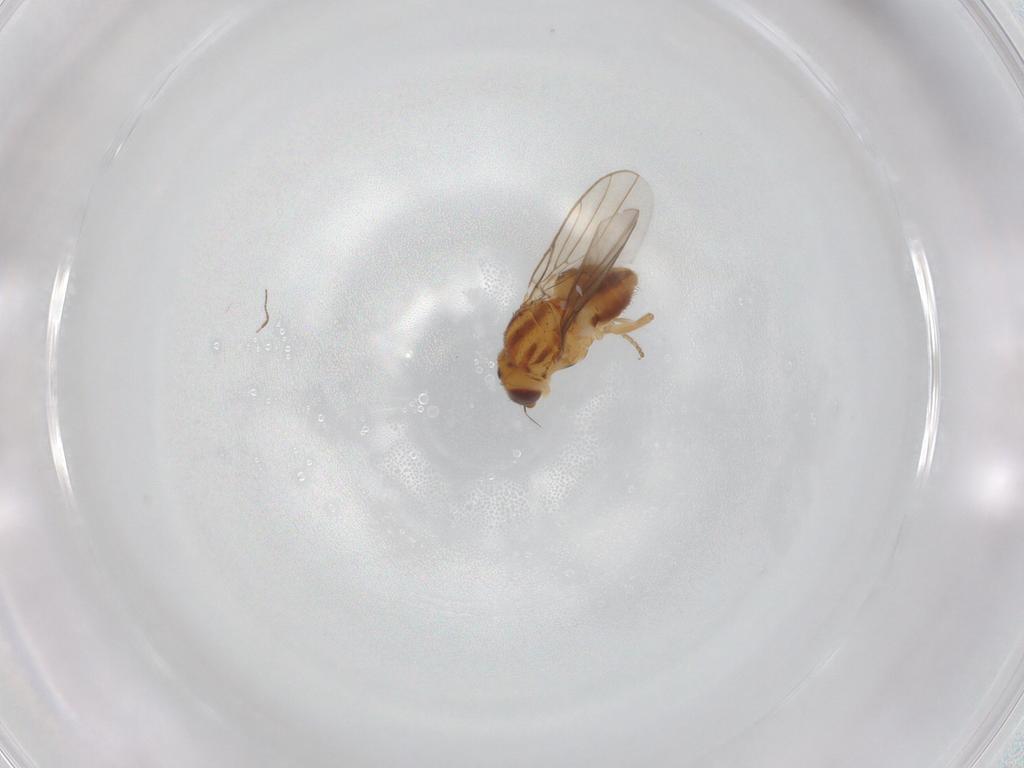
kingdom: Animalia
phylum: Arthropoda
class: Insecta
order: Diptera
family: Chloropidae
